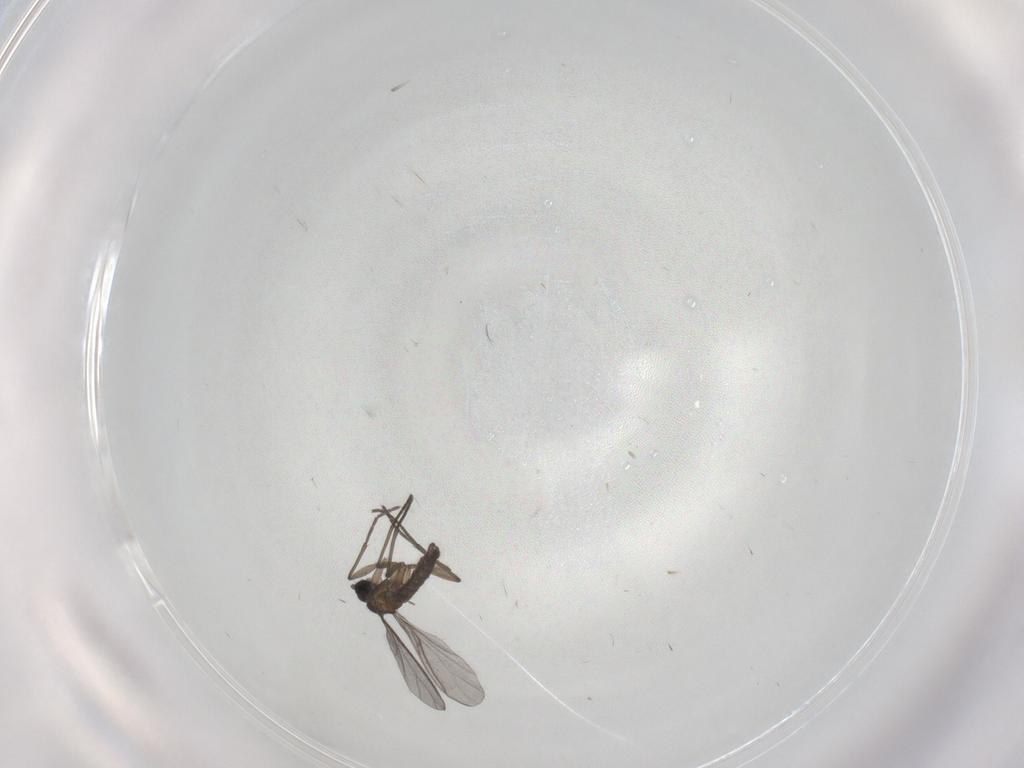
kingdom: Animalia
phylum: Arthropoda
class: Insecta
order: Diptera
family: Sciaridae
